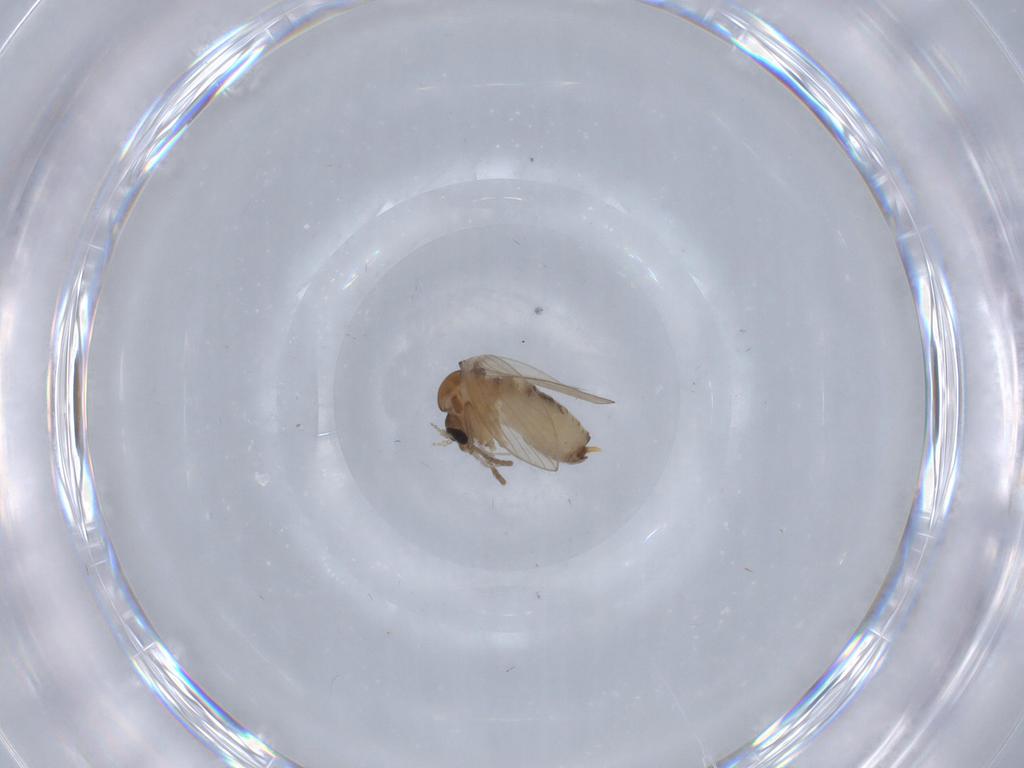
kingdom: Animalia
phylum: Arthropoda
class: Insecta
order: Diptera
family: Psychodidae
